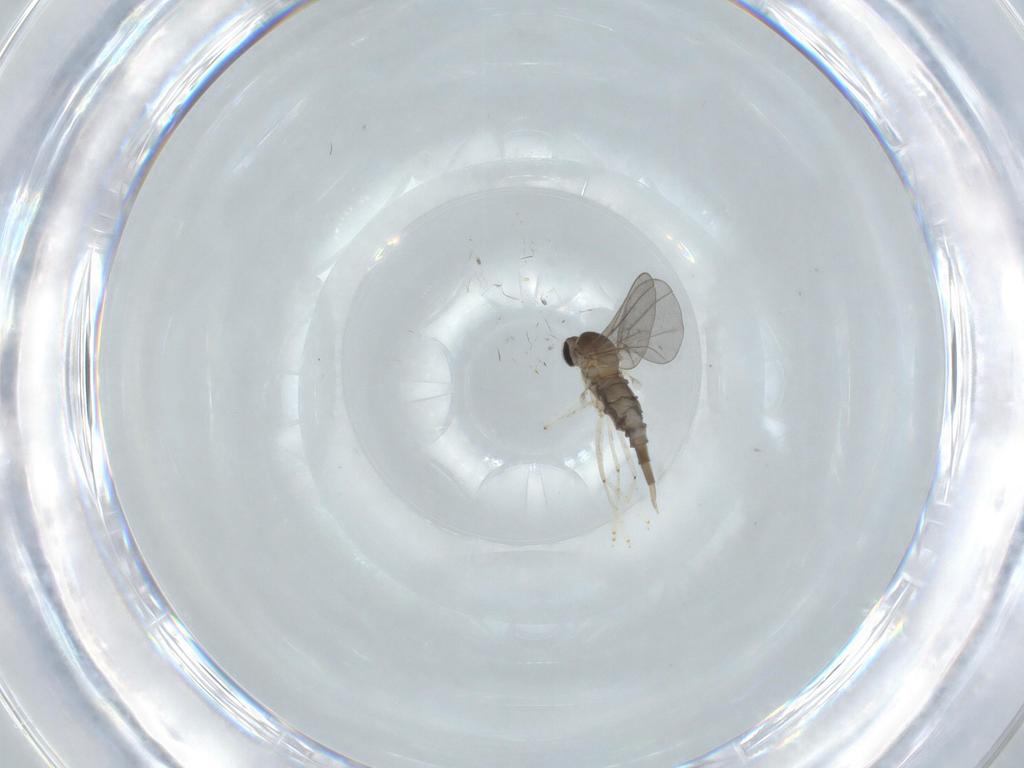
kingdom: Animalia
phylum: Arthropoda
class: Insecta
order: Diptera
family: Cecidomyiidae
